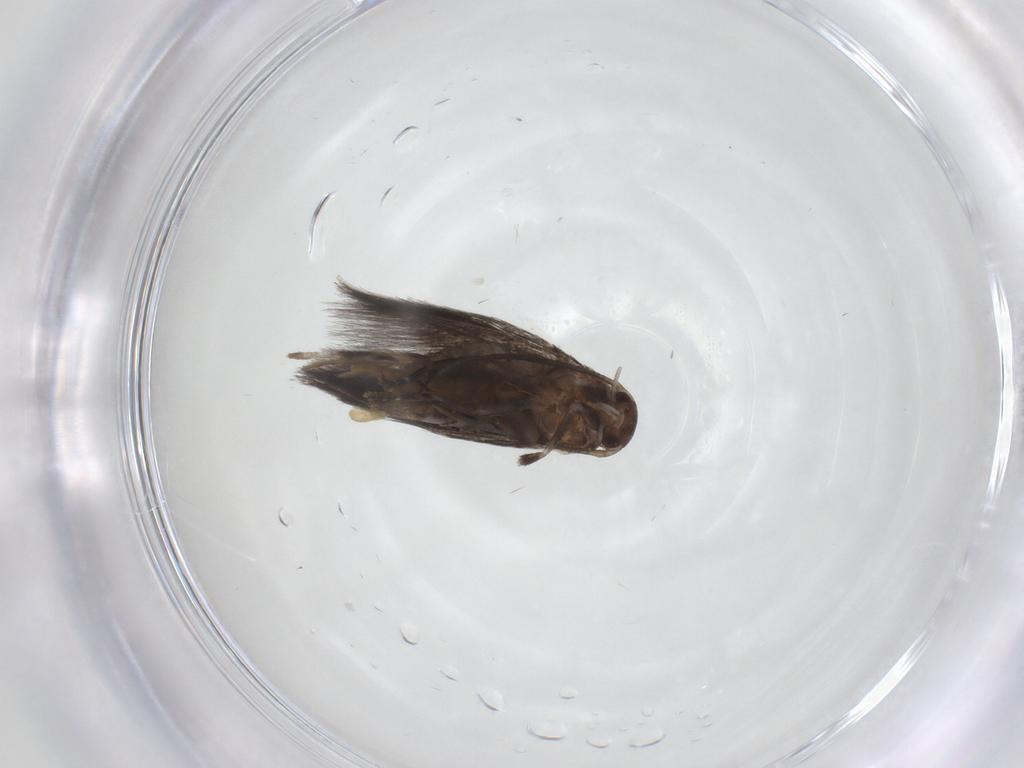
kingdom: Animalia
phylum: Arthropoda
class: Insecta
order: Lepidoptera
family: Elachistidae
